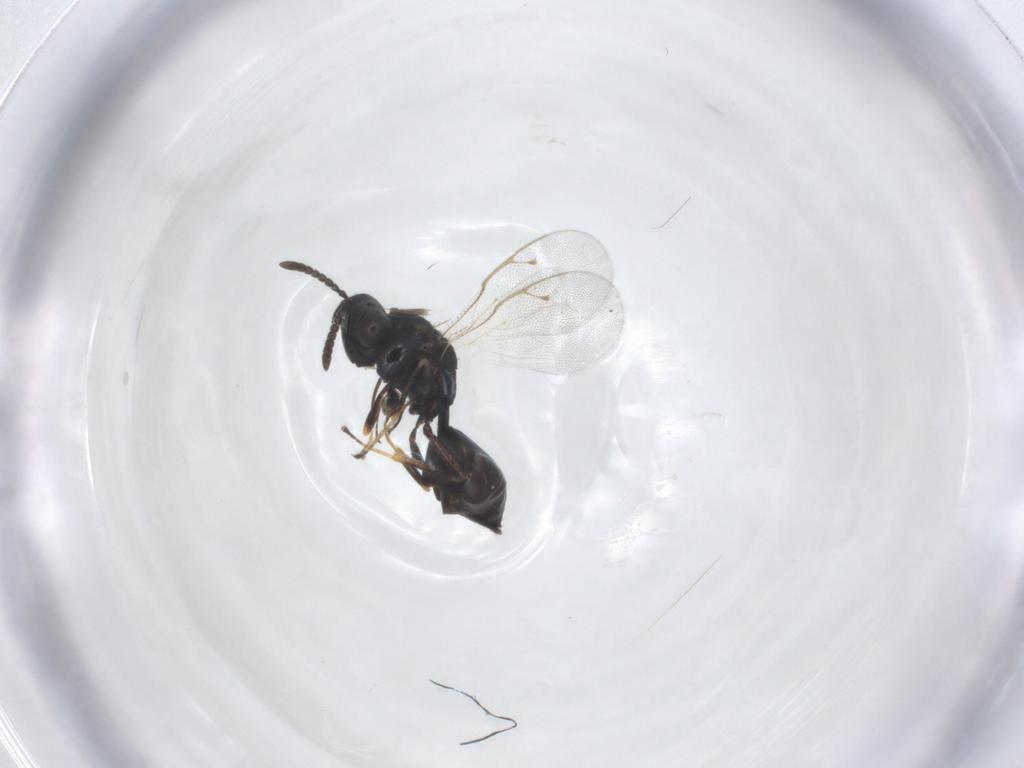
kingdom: Animalia
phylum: Arthropoda
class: Insecta
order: Hymenoptera
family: Pteromalidae
